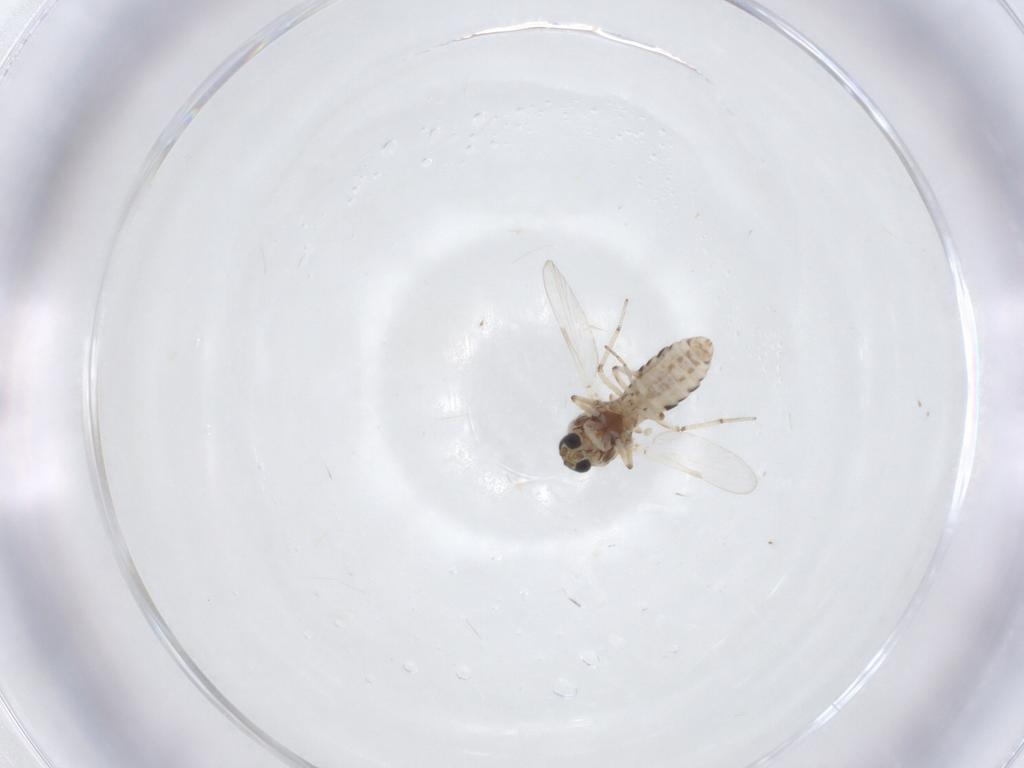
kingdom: Animalia
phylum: Arthropoda
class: Insecta
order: Diptera
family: Ceratopogonidae
